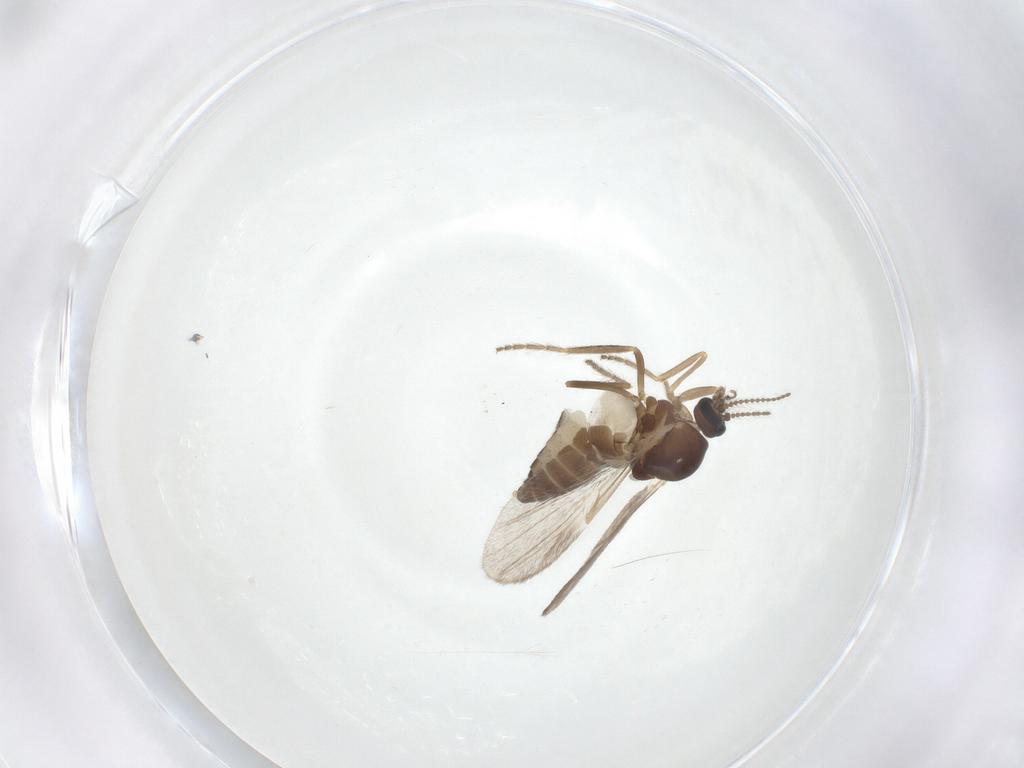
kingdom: Animalia
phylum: Arthropoda
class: Insecta
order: Diptera
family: Ceratopogonidae
